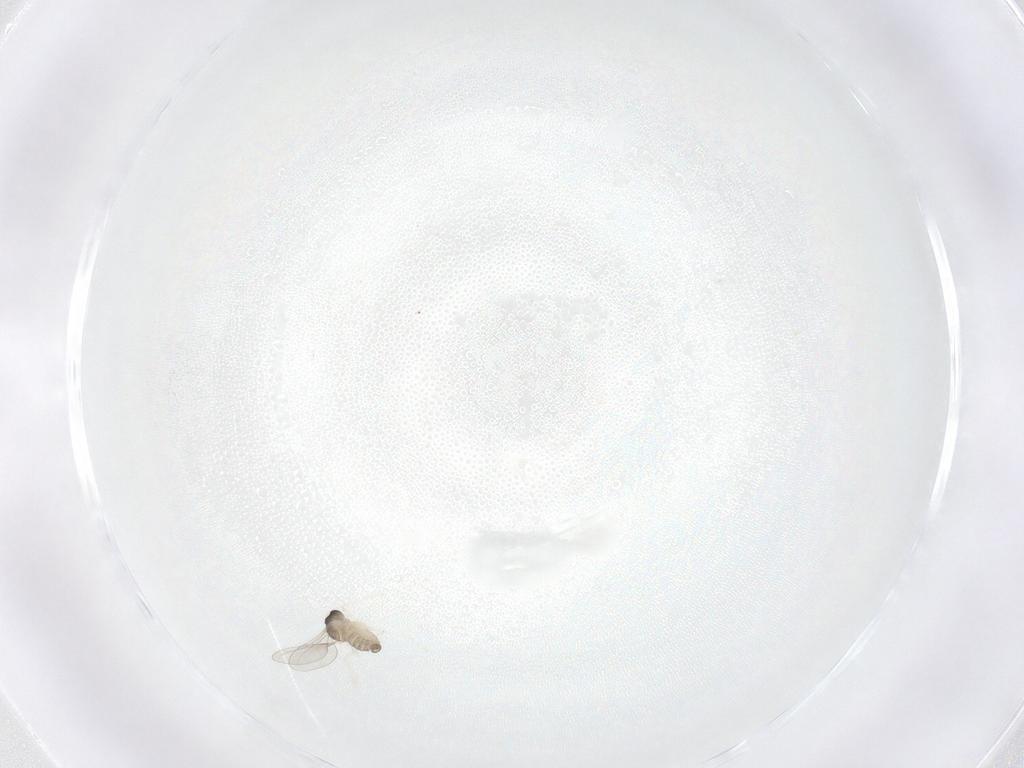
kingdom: Animalia
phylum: Arthropoda
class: Insecta
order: Diptera
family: Cecidomyiidae
